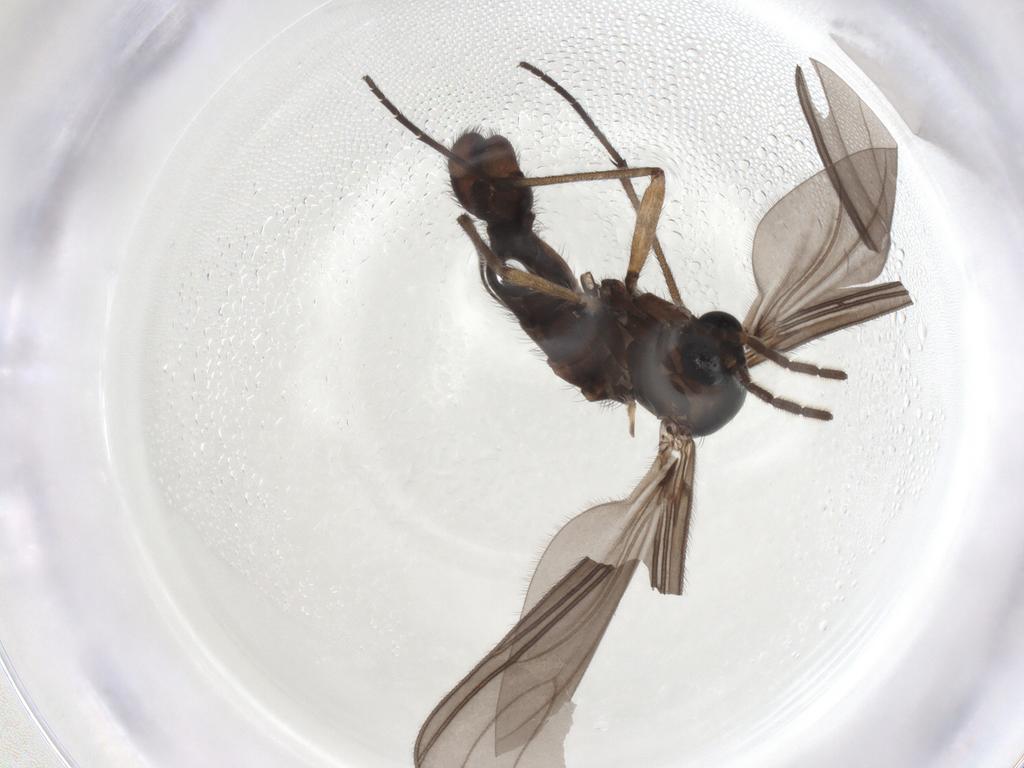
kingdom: Animalia
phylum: Arthropoda
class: Insecta
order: Diptera
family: Sciaridae
